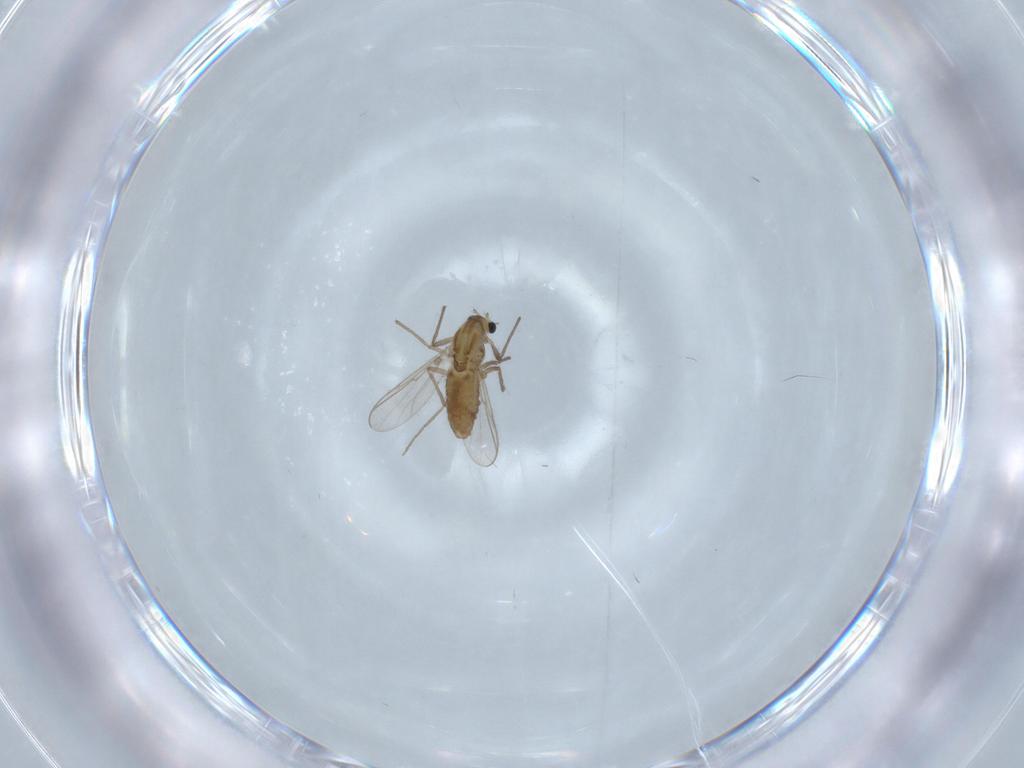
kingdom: Animalia
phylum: Arthropoda
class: Insecta
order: Diptera
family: Chironomidae
